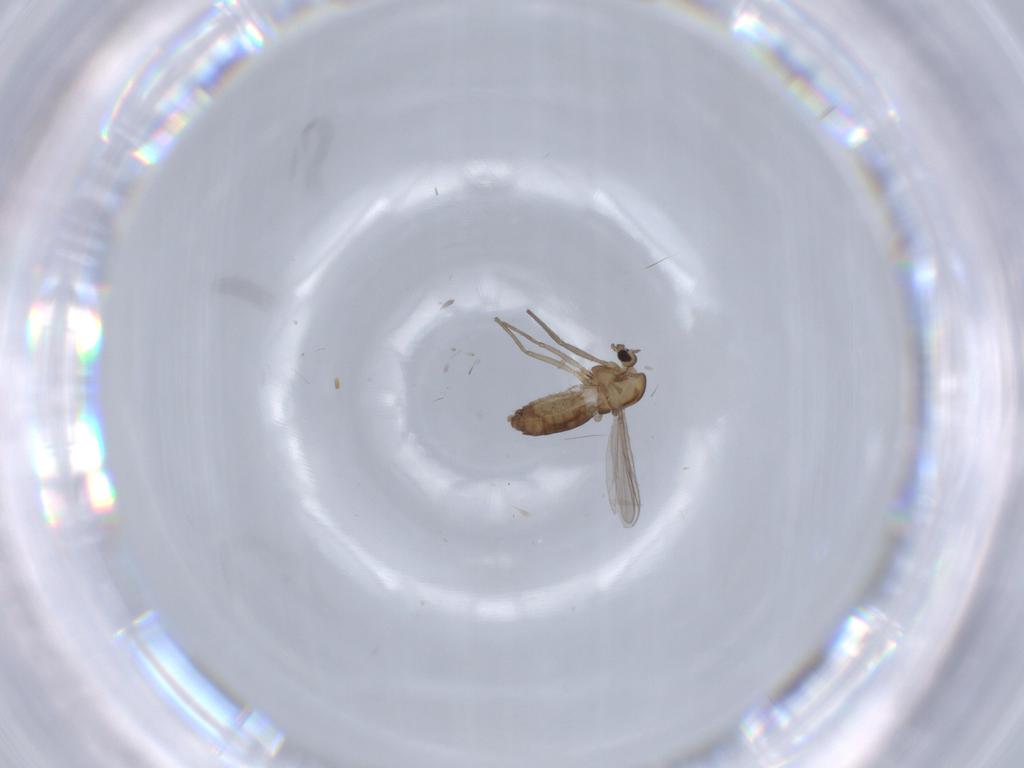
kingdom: Animalia
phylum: Arthropoda
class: Insecta
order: Diptera
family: Chironomidae
